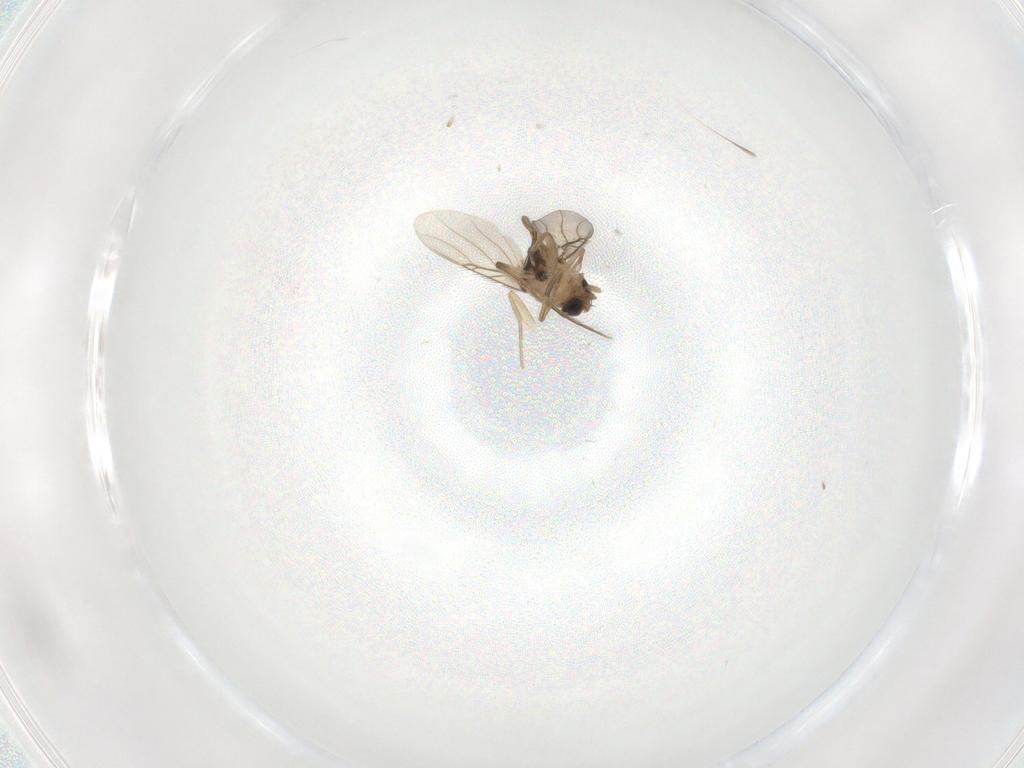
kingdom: Animalia
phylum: Arthropoda
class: Insecta
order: Diptera
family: Phoridae
